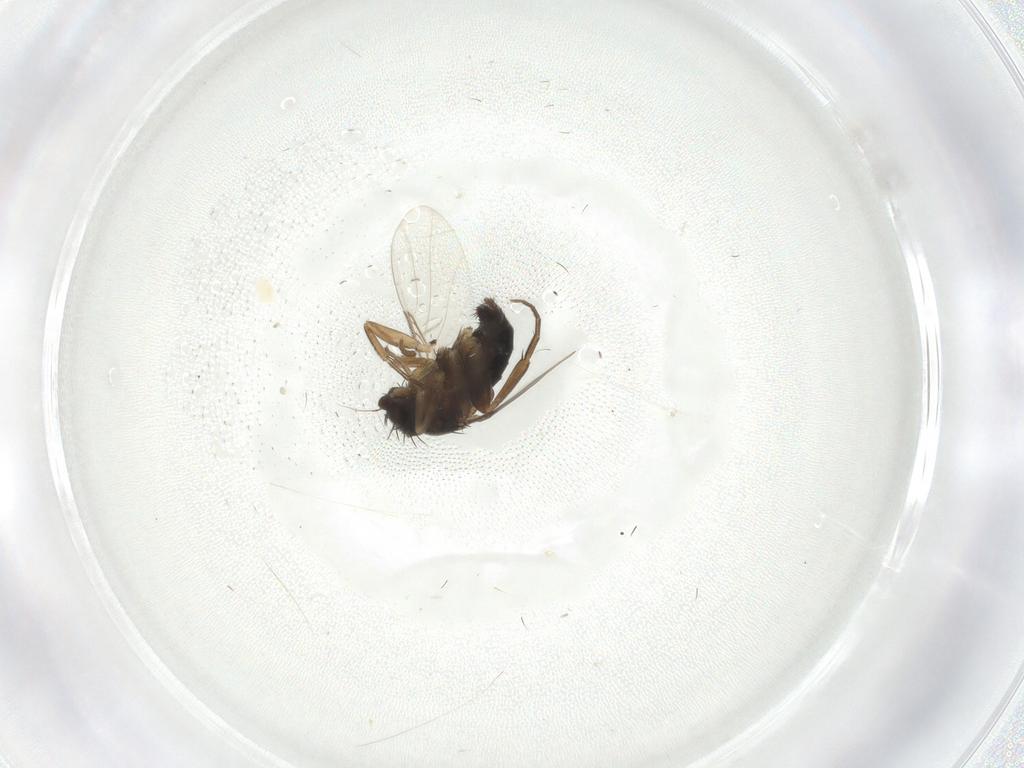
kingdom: Animalia
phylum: Arthropoda
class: Insecta
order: Diptera
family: Phoridae
